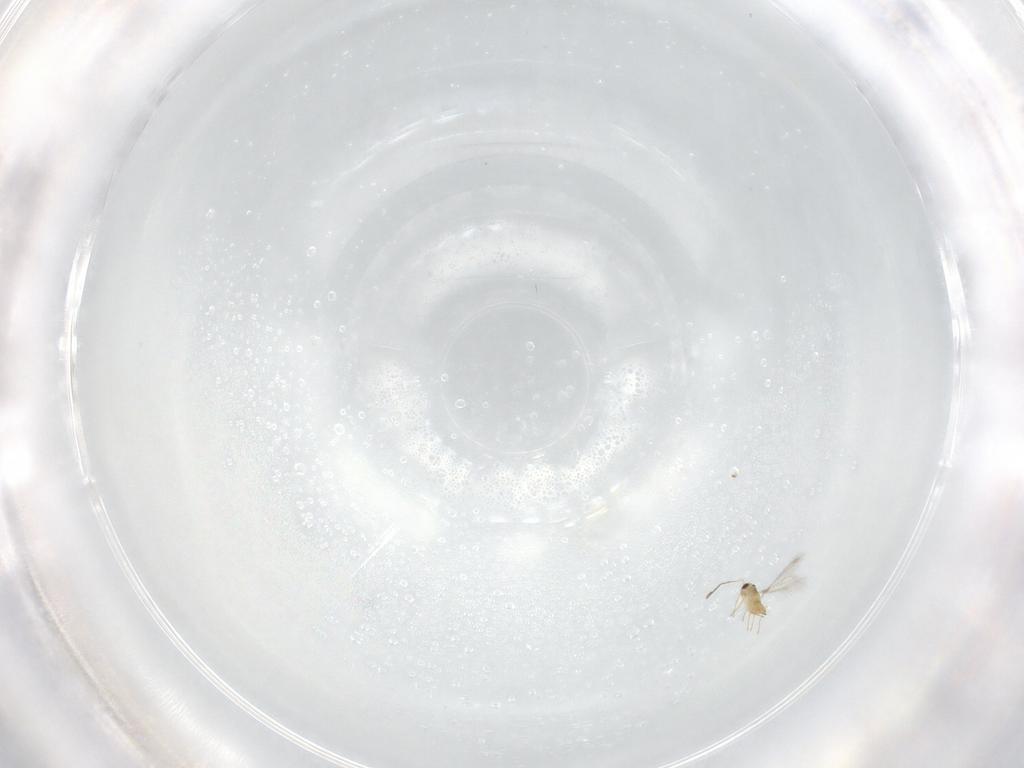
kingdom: Animalia
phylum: Arthropoda
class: Insecta
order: Hymenoptera
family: Mymaridae
